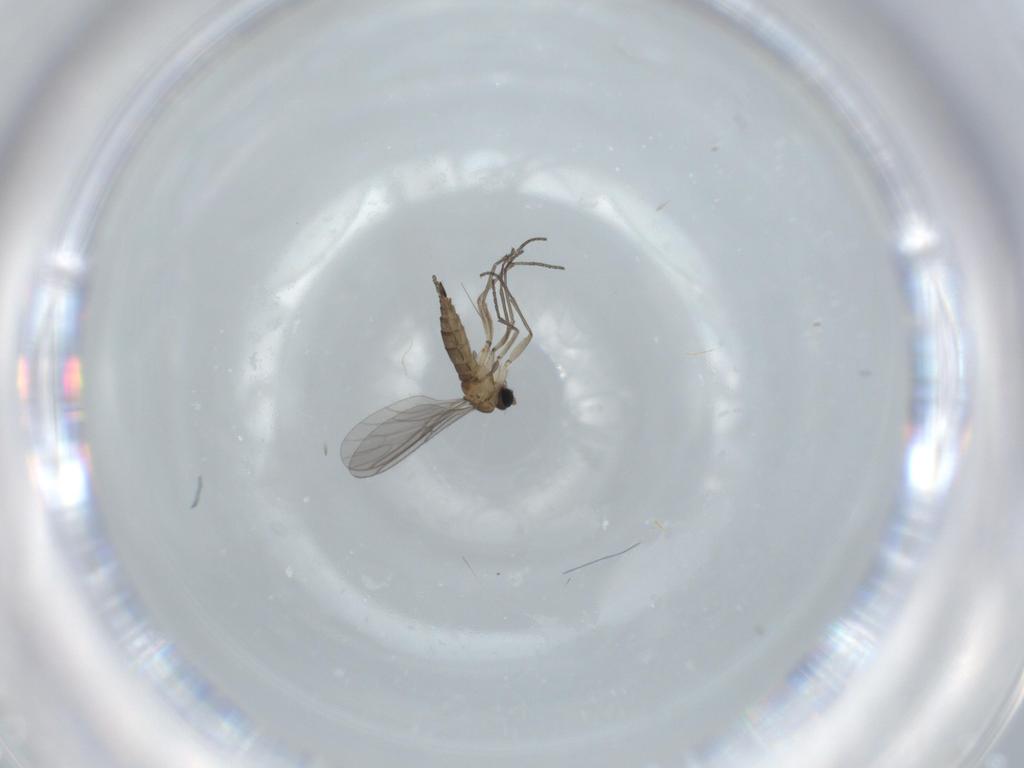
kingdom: Animalia
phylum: Arthropoda
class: Insecta
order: Diptera
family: Sciaridae
